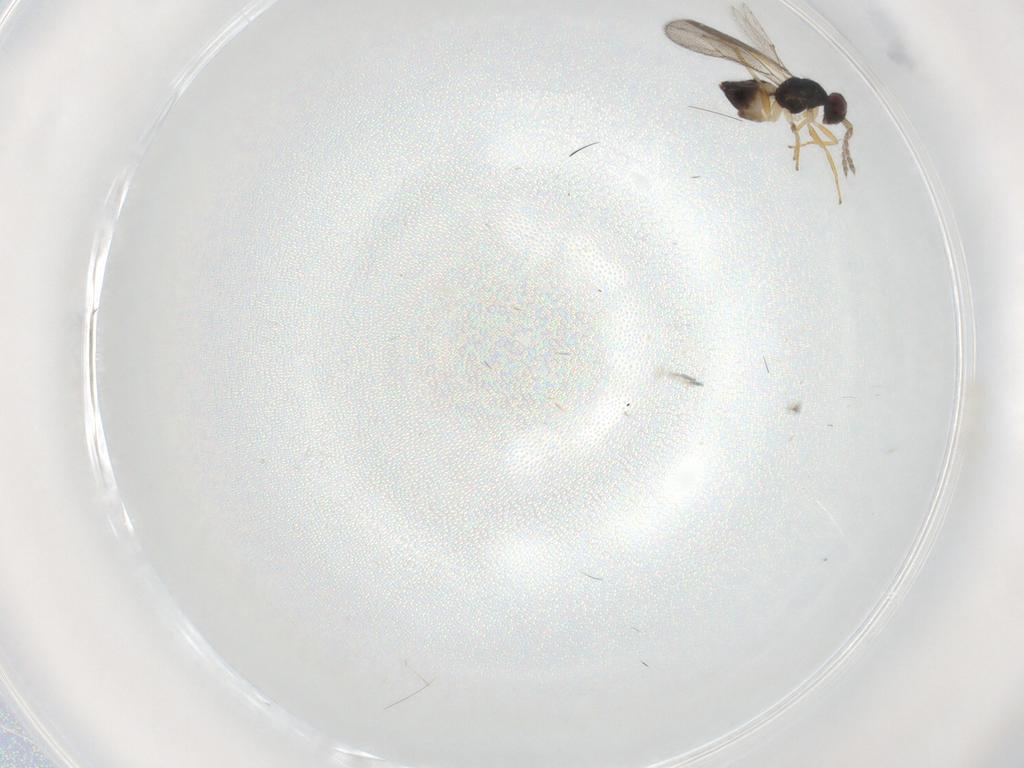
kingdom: Animalia
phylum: Arthropoda
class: Insecta
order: Hymenoptera
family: Eulophidae
